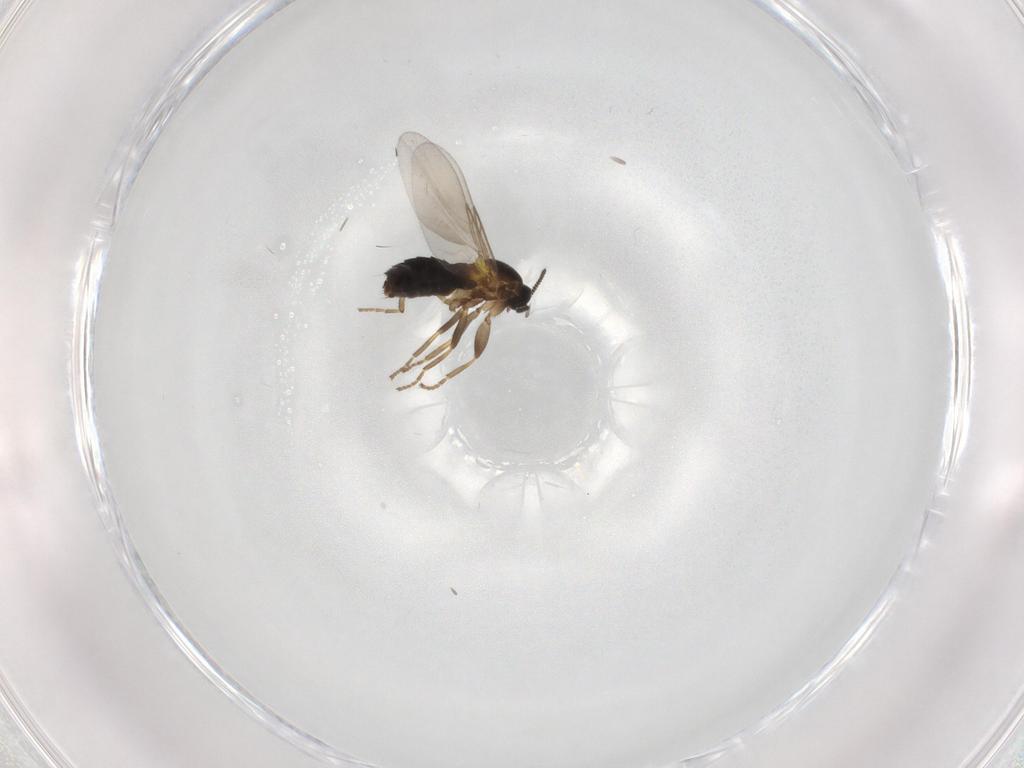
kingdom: Animalia
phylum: Arthropoda
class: Insecta
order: Diptera
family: Scatopsidae
